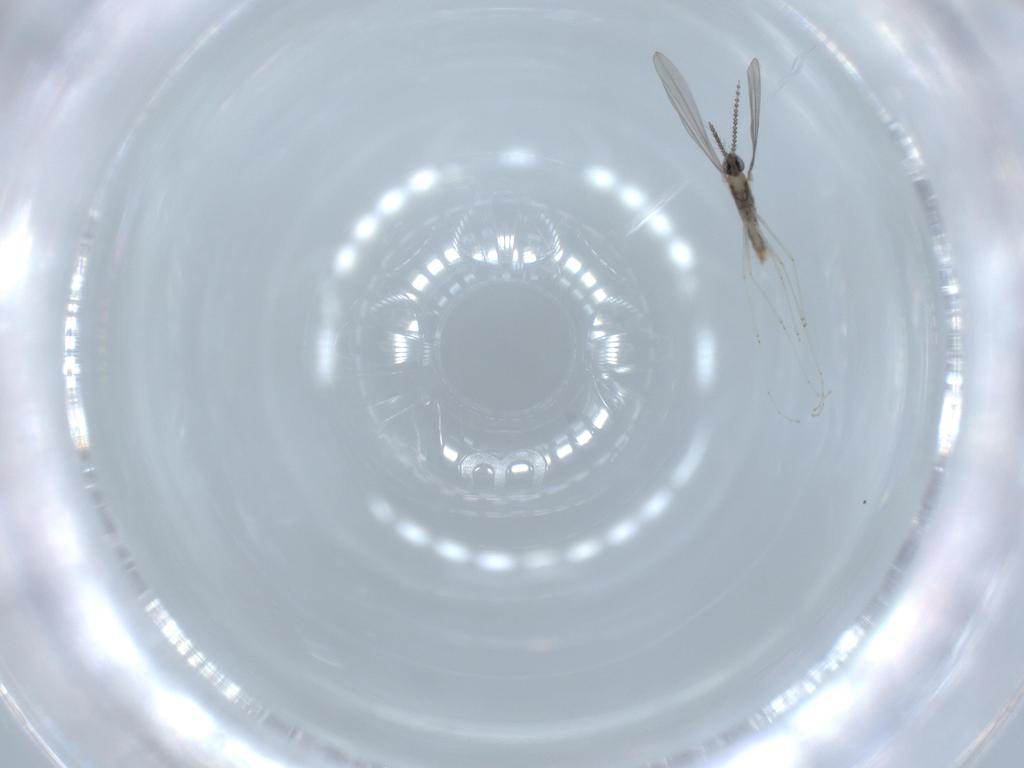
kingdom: Animalia
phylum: Arthropoda
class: Insecta
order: Diptera
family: Cecidomyiidae
